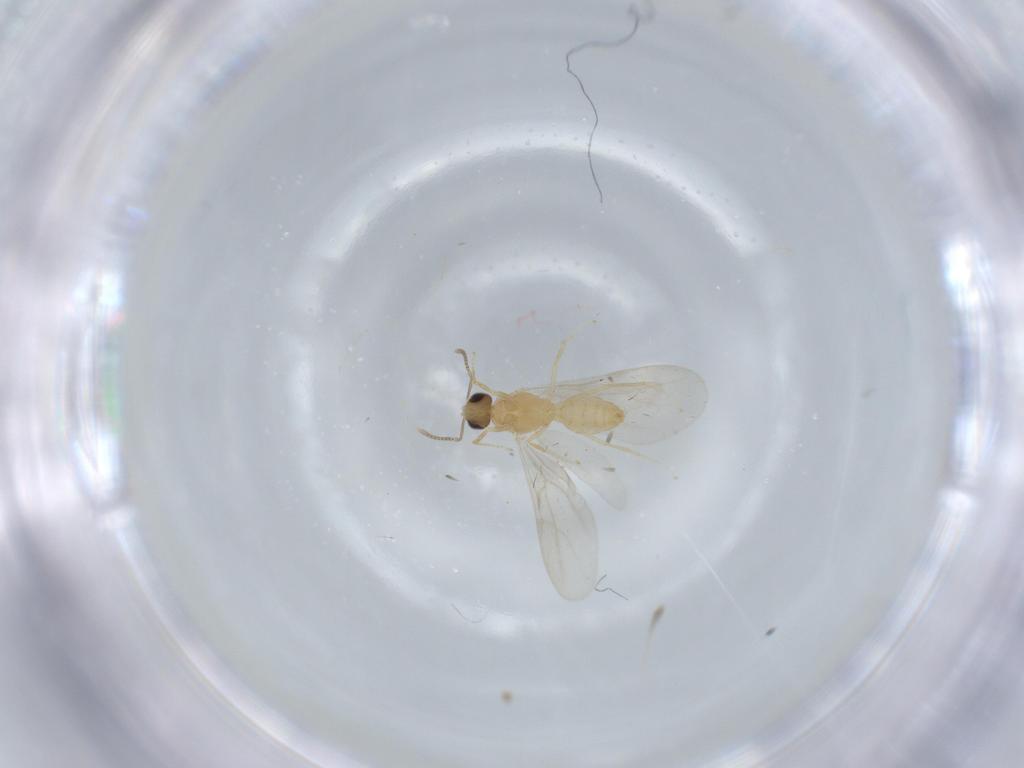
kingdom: Animalia
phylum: Arthropoda
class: Insecta
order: Hymenoptera
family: Formicidae
